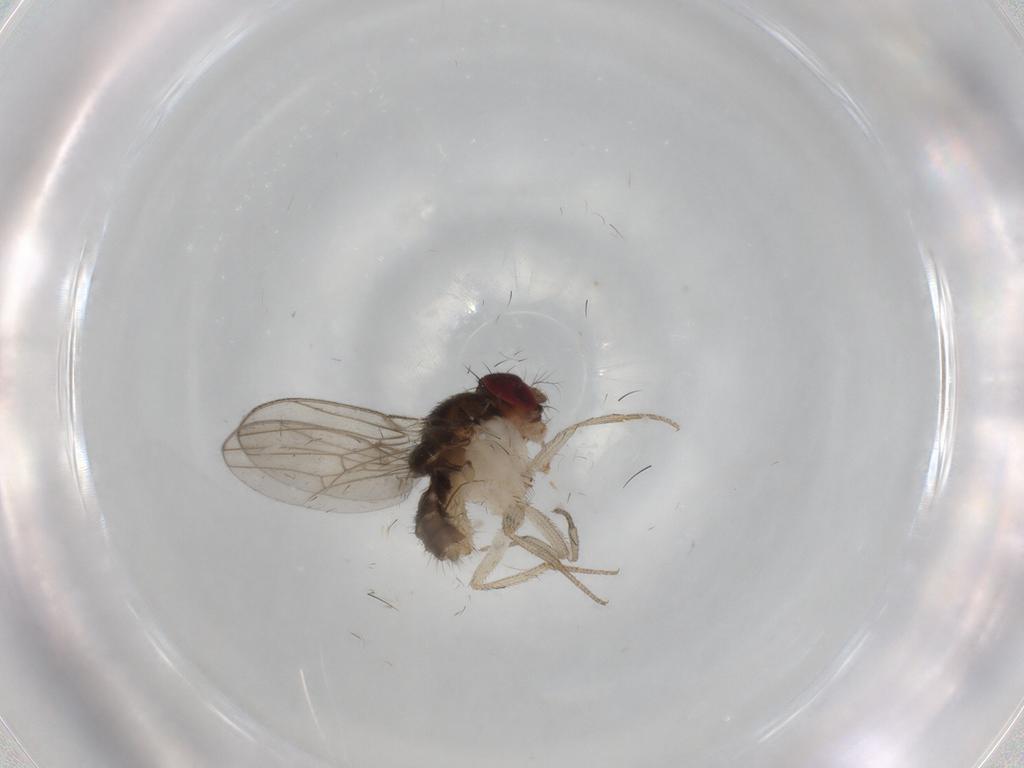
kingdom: Animalia
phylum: Arthropoda
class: Insecta
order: Diptera
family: Drosophilidae
